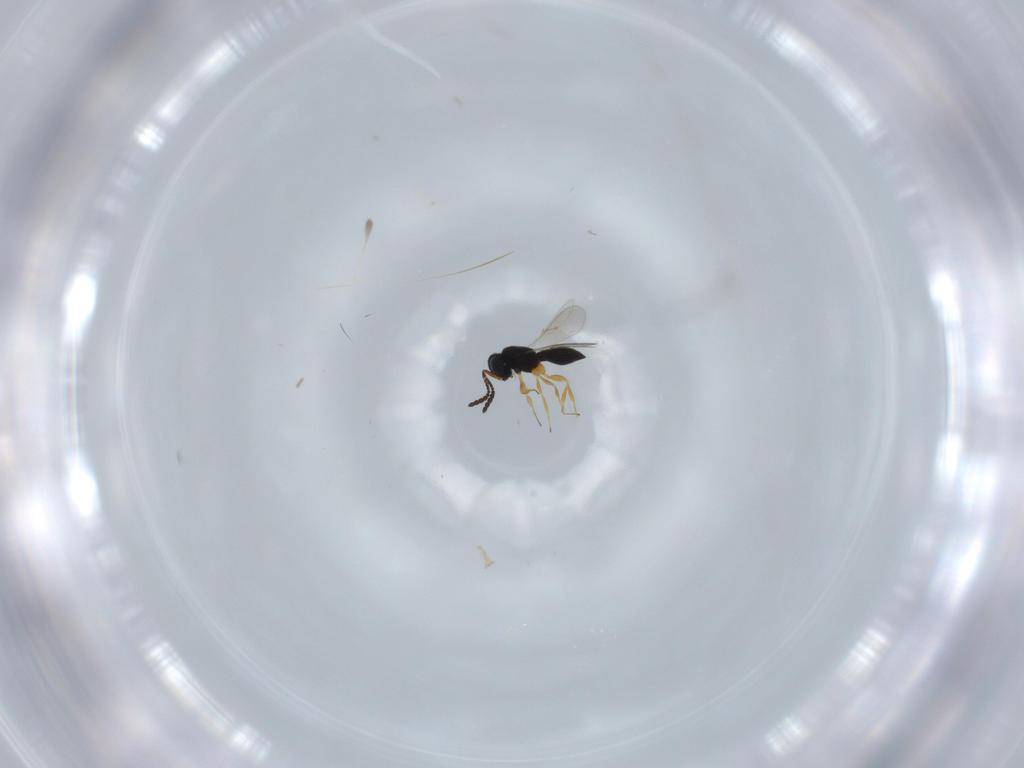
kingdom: Animalia
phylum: Arthropoda
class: Insecta
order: Hymenoptera
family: Scelionidae
